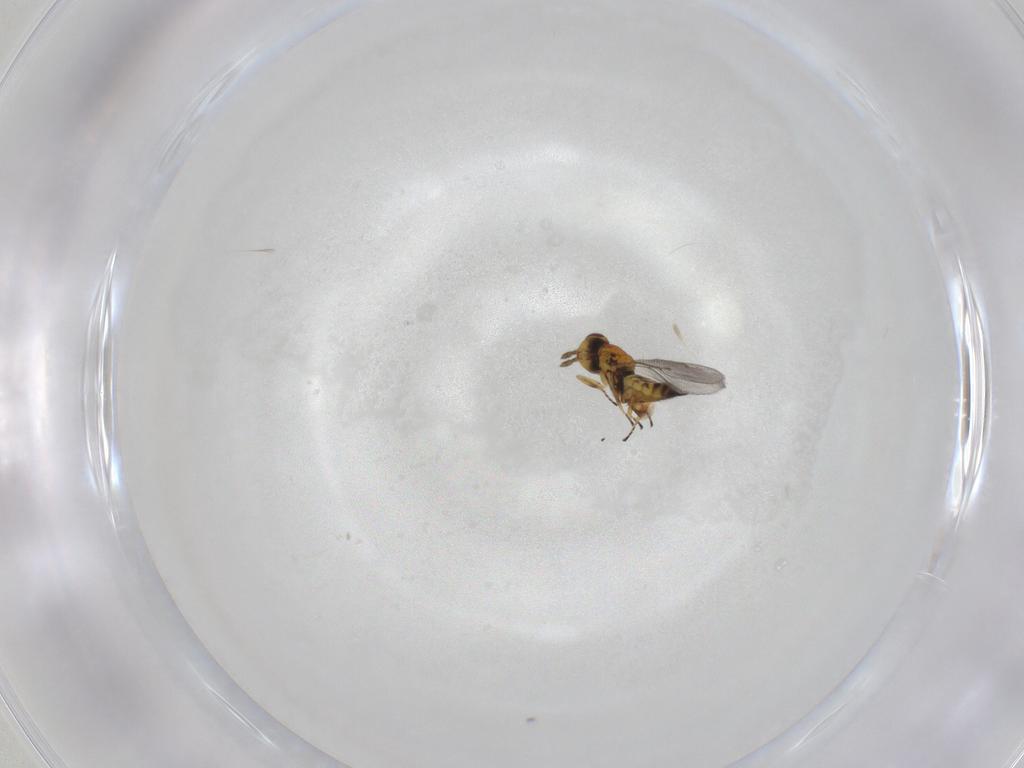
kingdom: Animalia
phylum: Arthropoda
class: Insecta
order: Hymenoptera
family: Eulophidae
